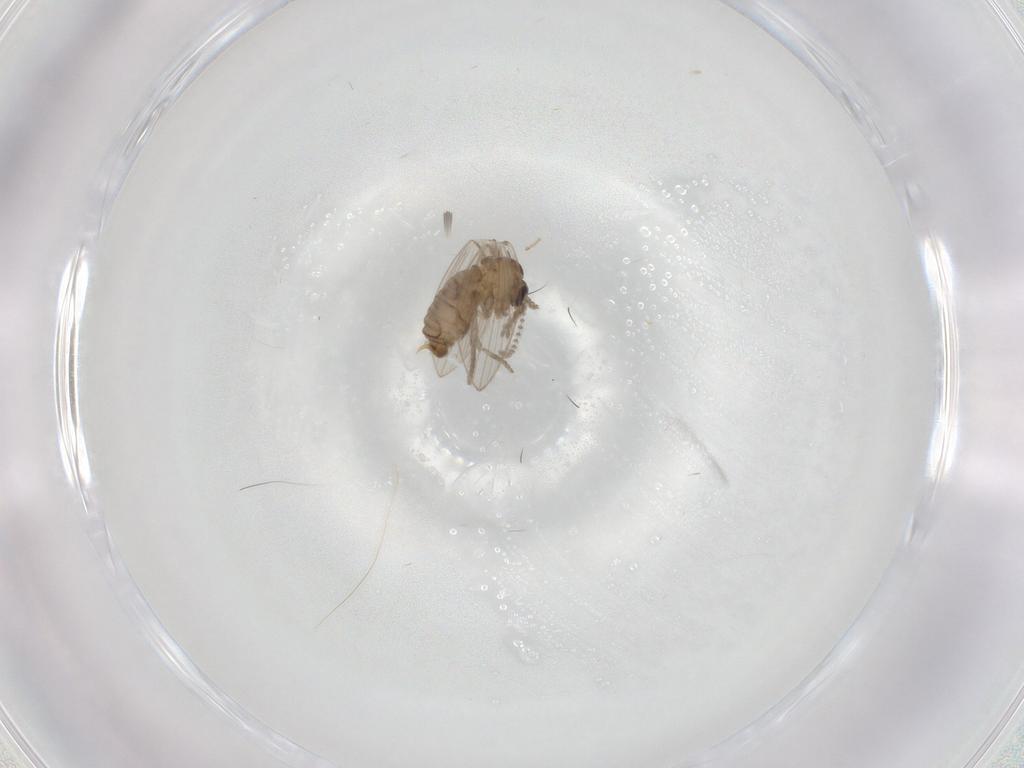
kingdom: Animalia
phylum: Arthropoda
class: Insecta
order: Diptera
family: Psychodidae
